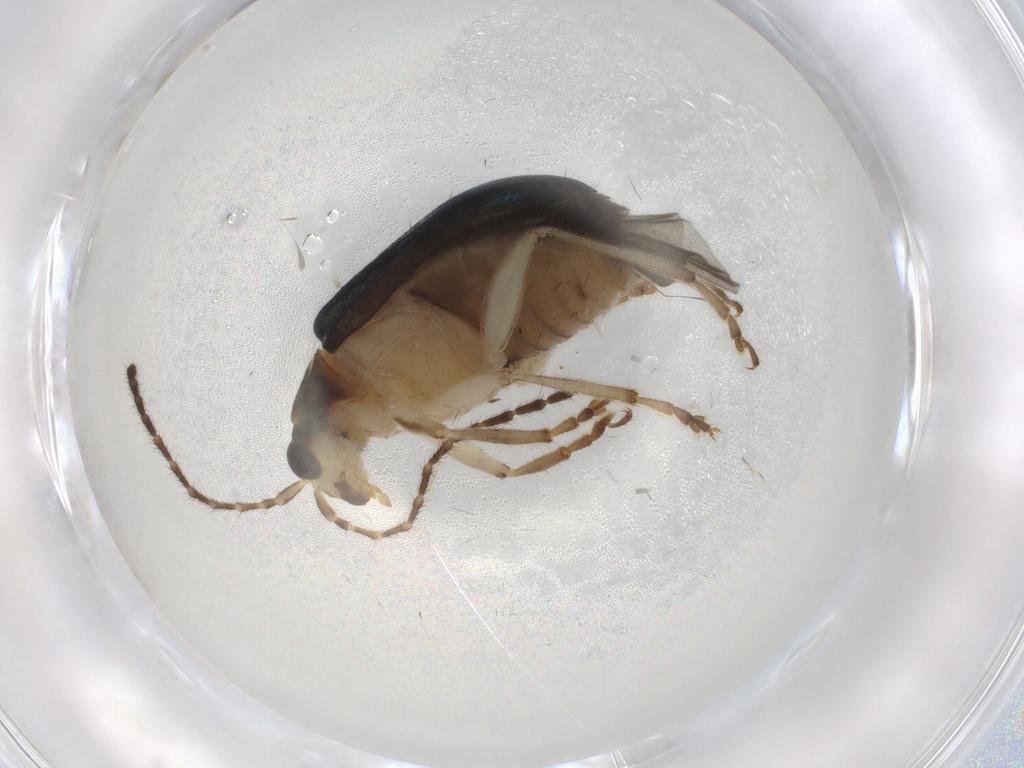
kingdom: Animalia
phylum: Arthropoda
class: Insecta
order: Coleoptera
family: Chrysomelidae
